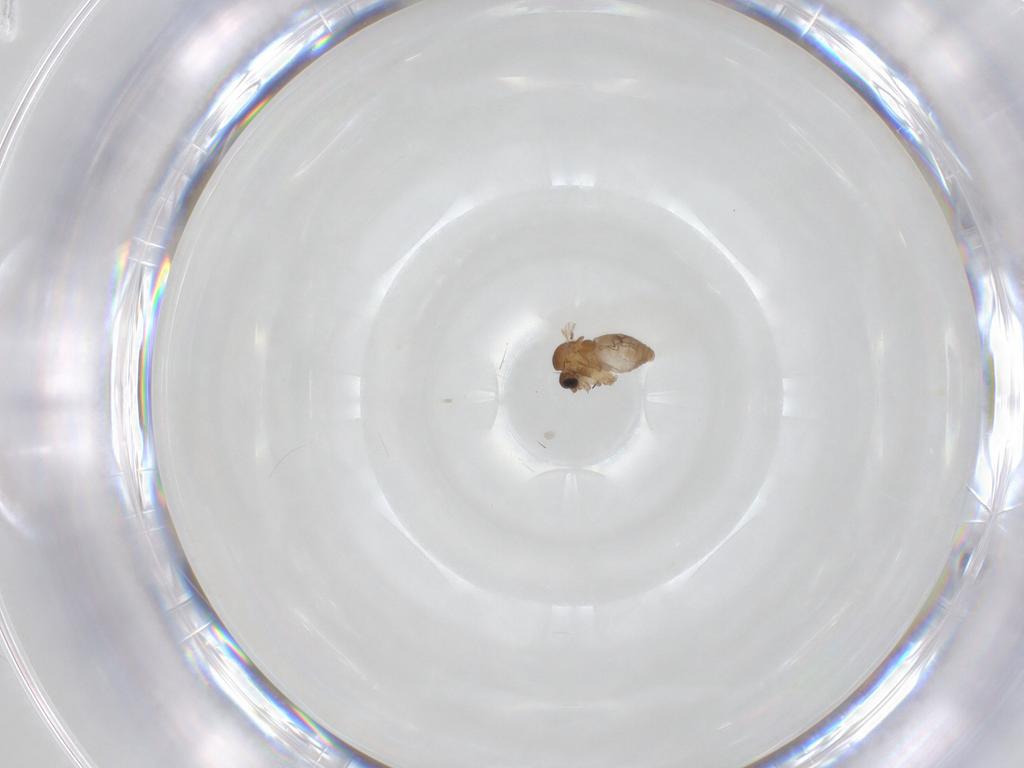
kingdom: Animalia
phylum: Arthropoda
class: Insecta
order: Diptera
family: Psychodidae
